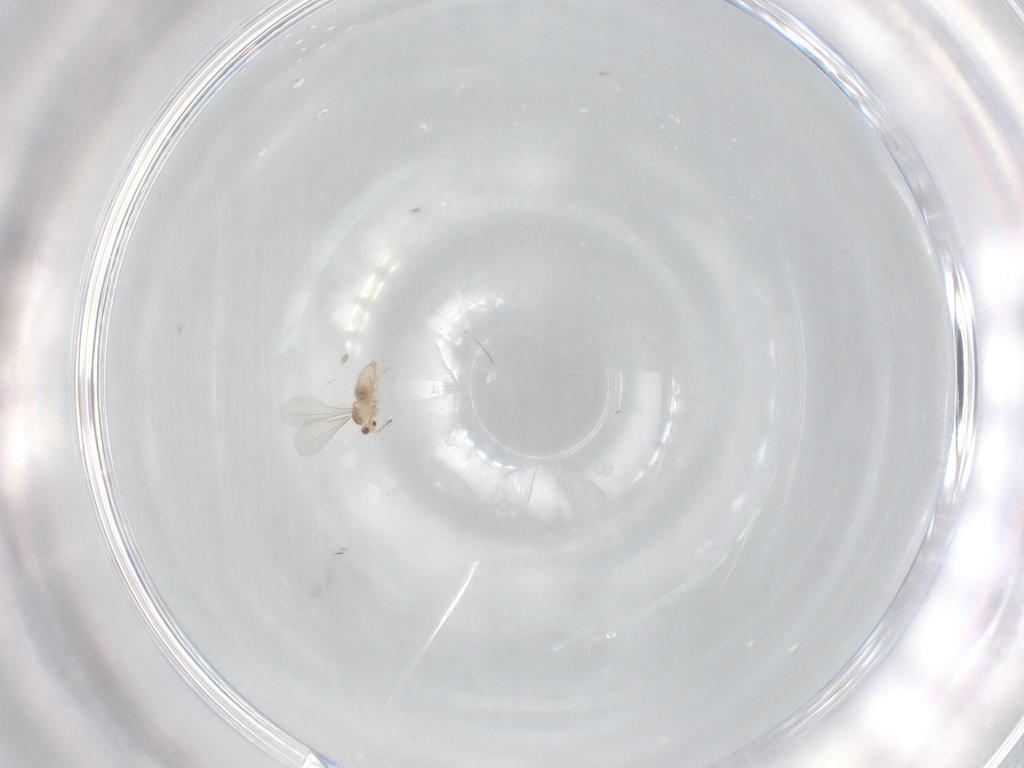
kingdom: Animalia
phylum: Arthropoda
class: Insecta
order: Diptera
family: Cecidomyiidae
